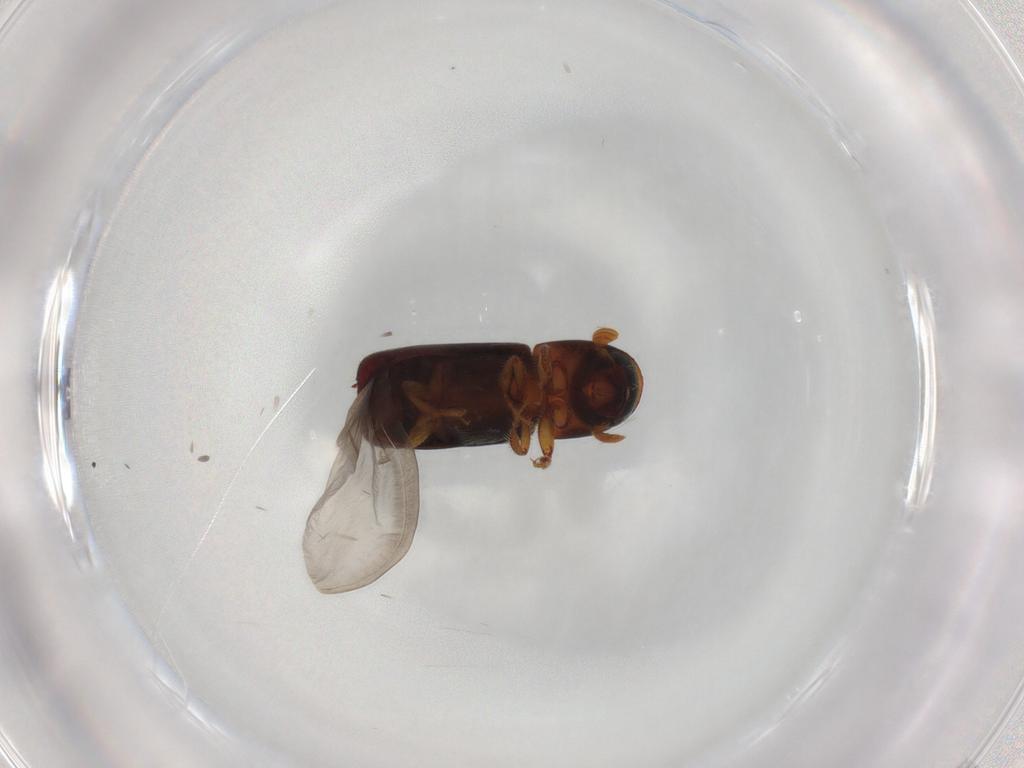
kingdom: Animalia
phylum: Arthropoda
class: Insecta
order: Coleoptera
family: Curculionidae
